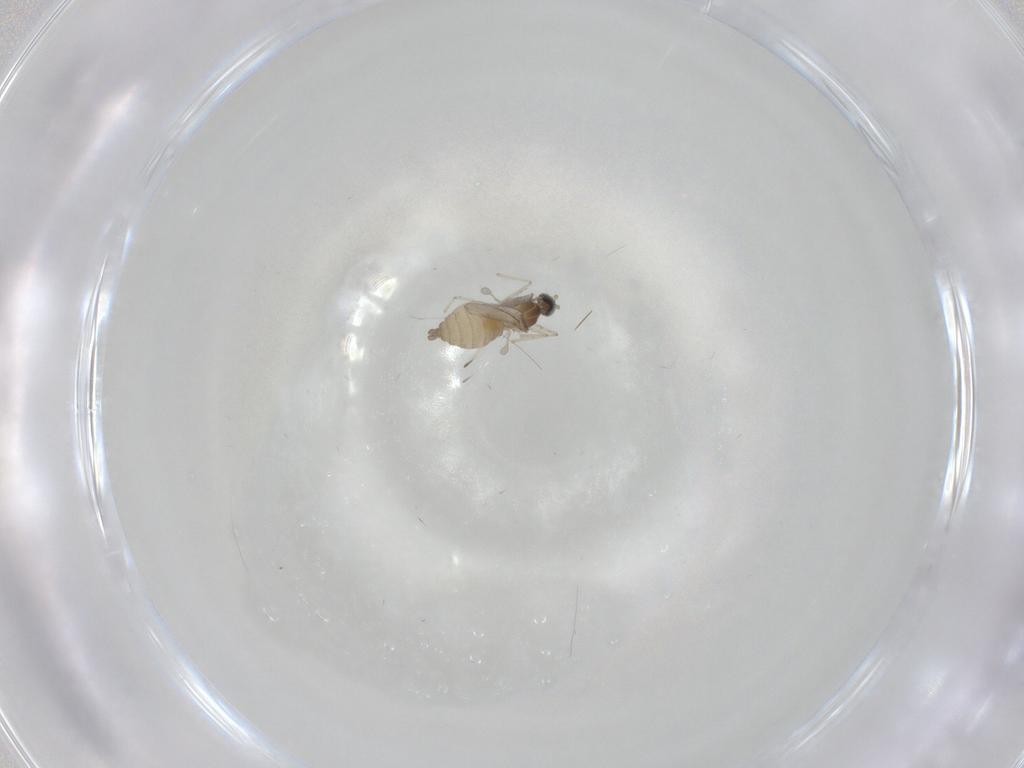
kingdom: Animalia
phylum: Arthropoda
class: Insecta
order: Diptera
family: Cecidomyiidae
